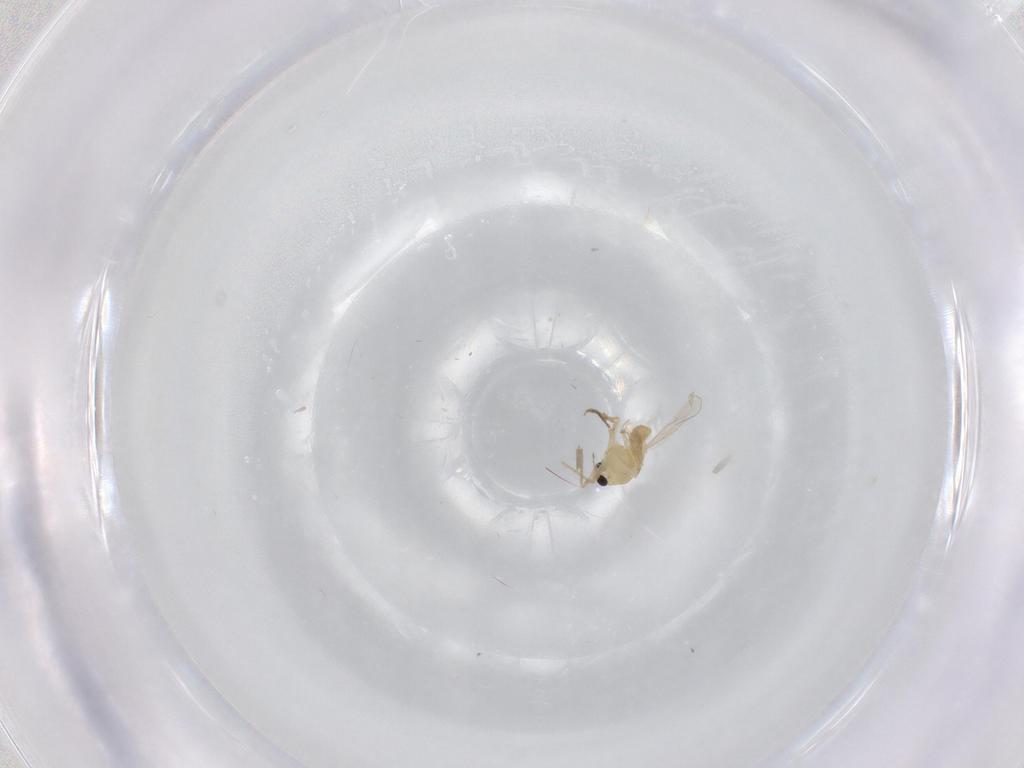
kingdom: Animalia
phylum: Arthropoda
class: Insecta
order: Diptera
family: Chironomidae
